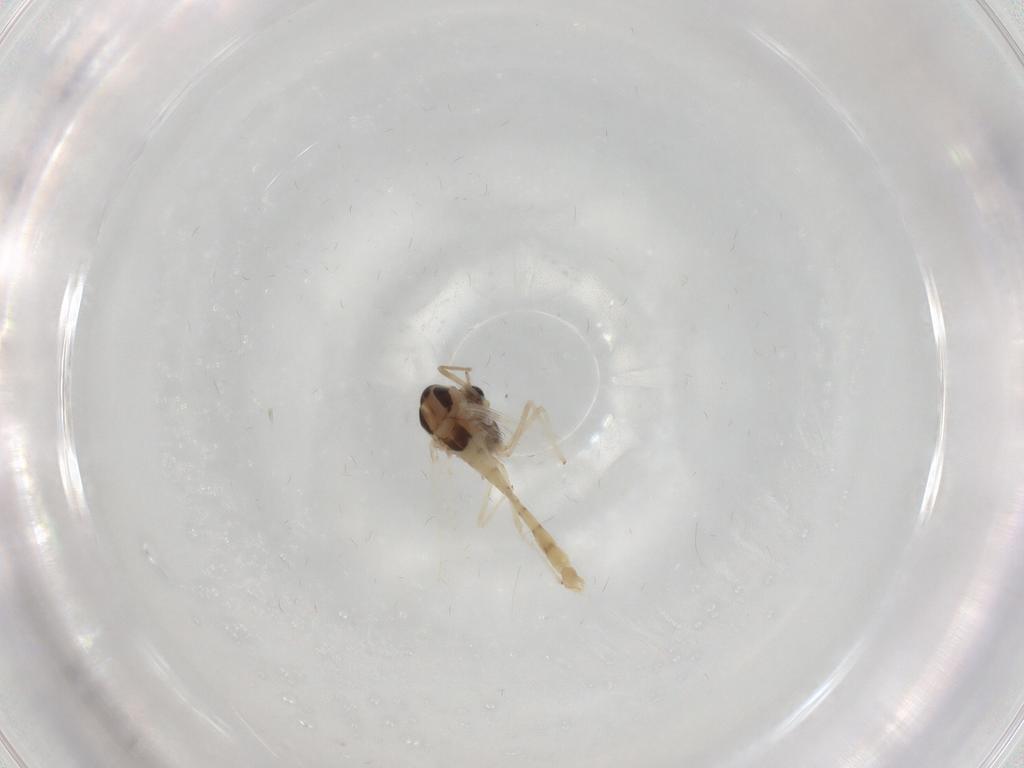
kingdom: Animalia
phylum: Arthropoda
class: Insecta
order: Diptera
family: Chironomidae
